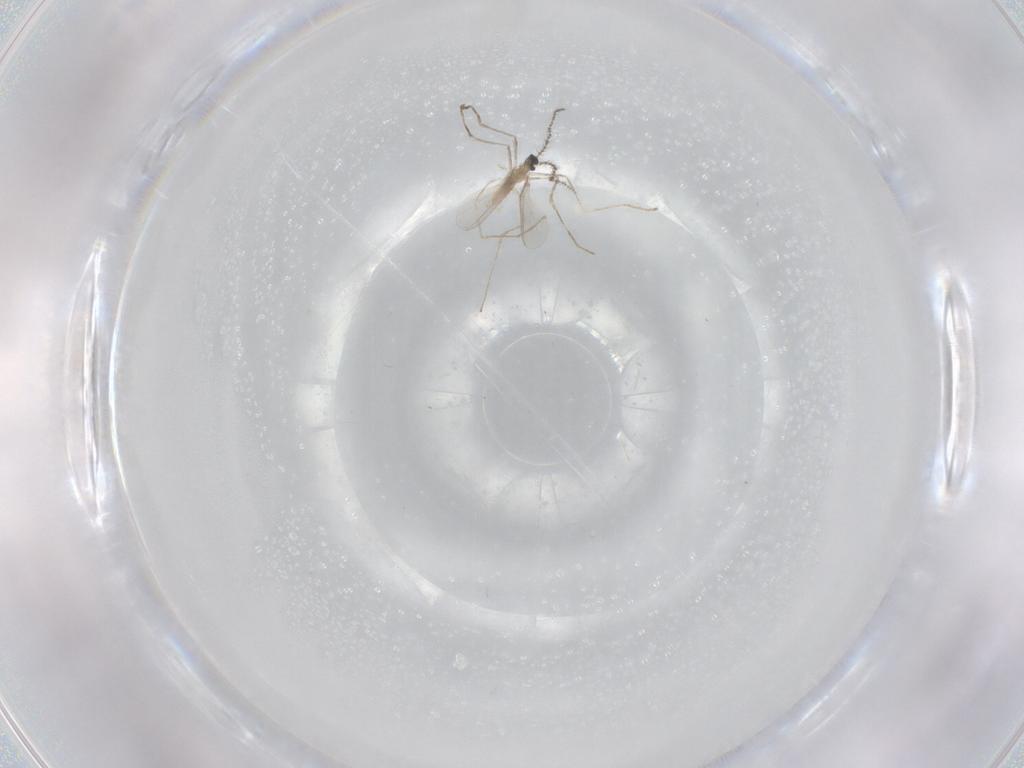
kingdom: Animalia
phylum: Arthropoda
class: Insecta
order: Diptera
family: Cecidomyiidae
